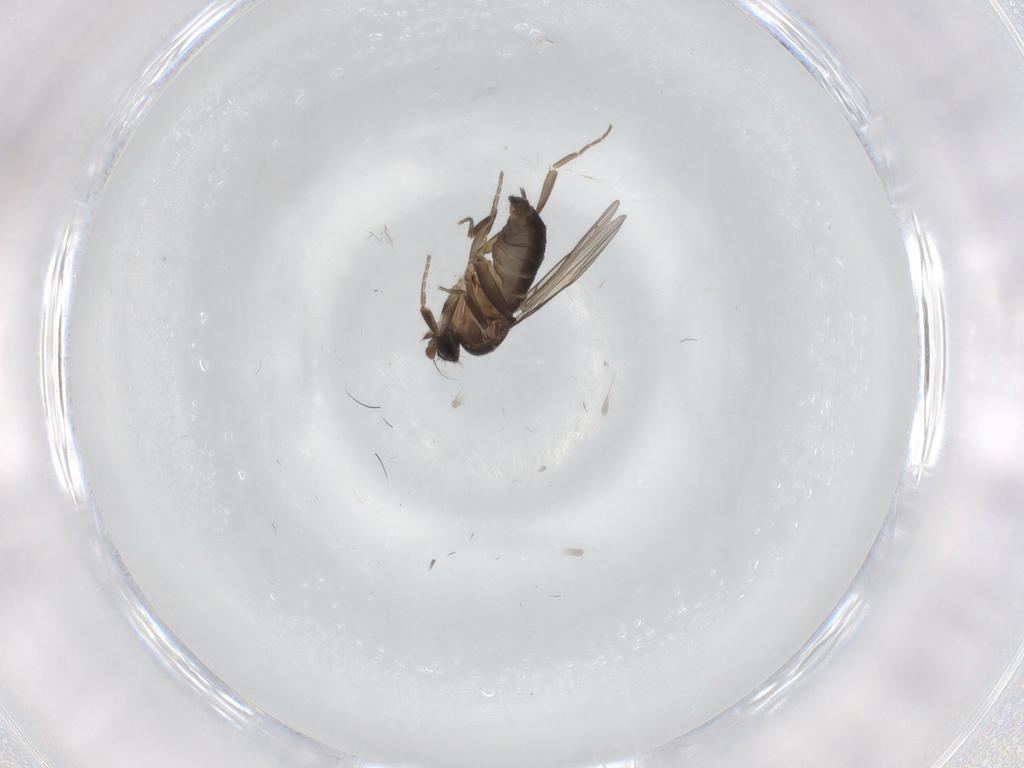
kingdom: Animalia
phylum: Arthropoda
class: Insecta
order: Diptera
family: Phoridae
